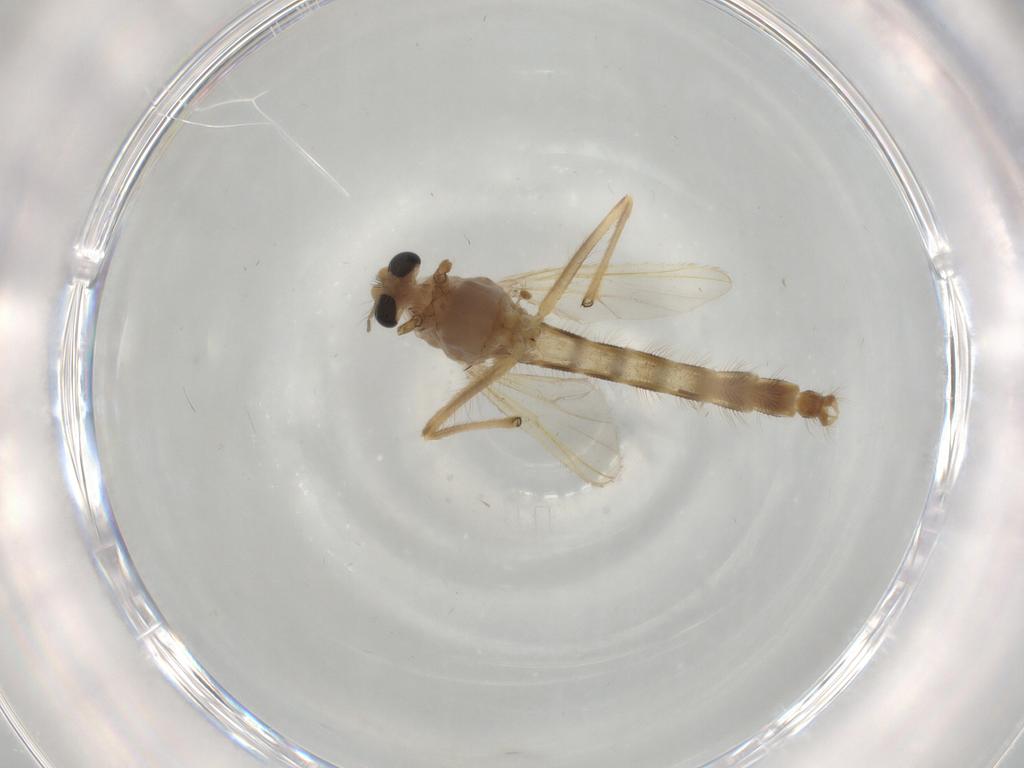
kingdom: Animalia
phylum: Arthropoda
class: Insecta
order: Diptera
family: Chironomidae
